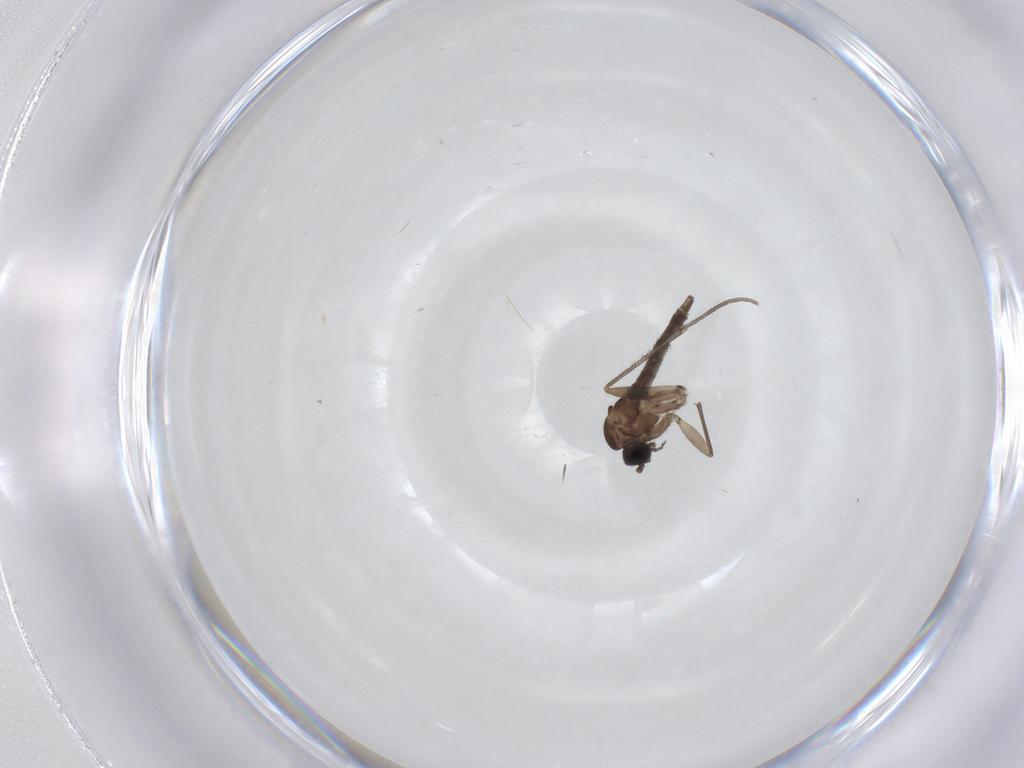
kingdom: Animalia
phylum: Arthropoda
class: Insecta
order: Diptera
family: Sciaridae
